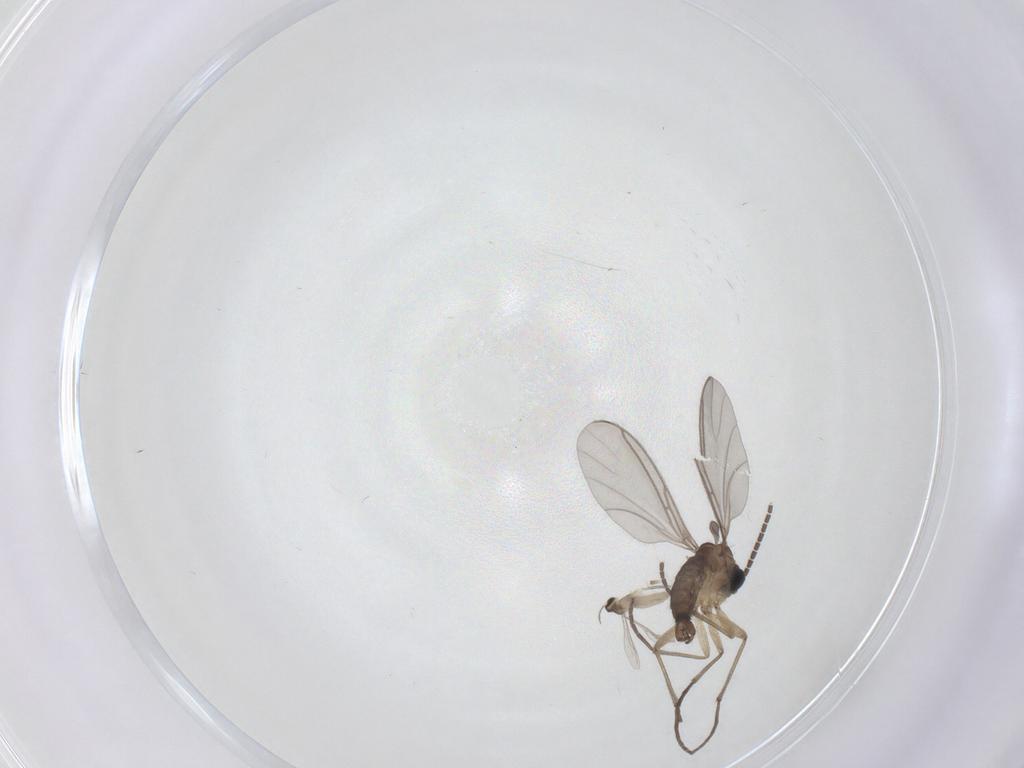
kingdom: Animalia
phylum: Arthropoda
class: Insecta
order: Diptera
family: Cecidomyiidae
